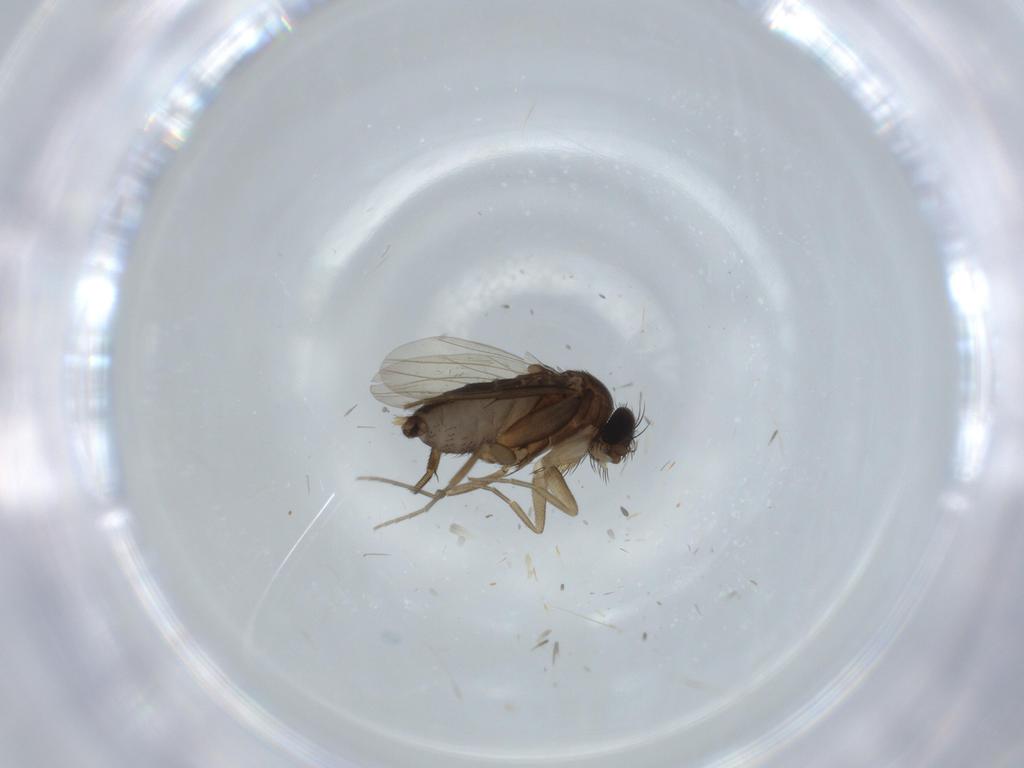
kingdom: Animalia
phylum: Arthropoda
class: Insecta
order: Diptera
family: Phoridae
